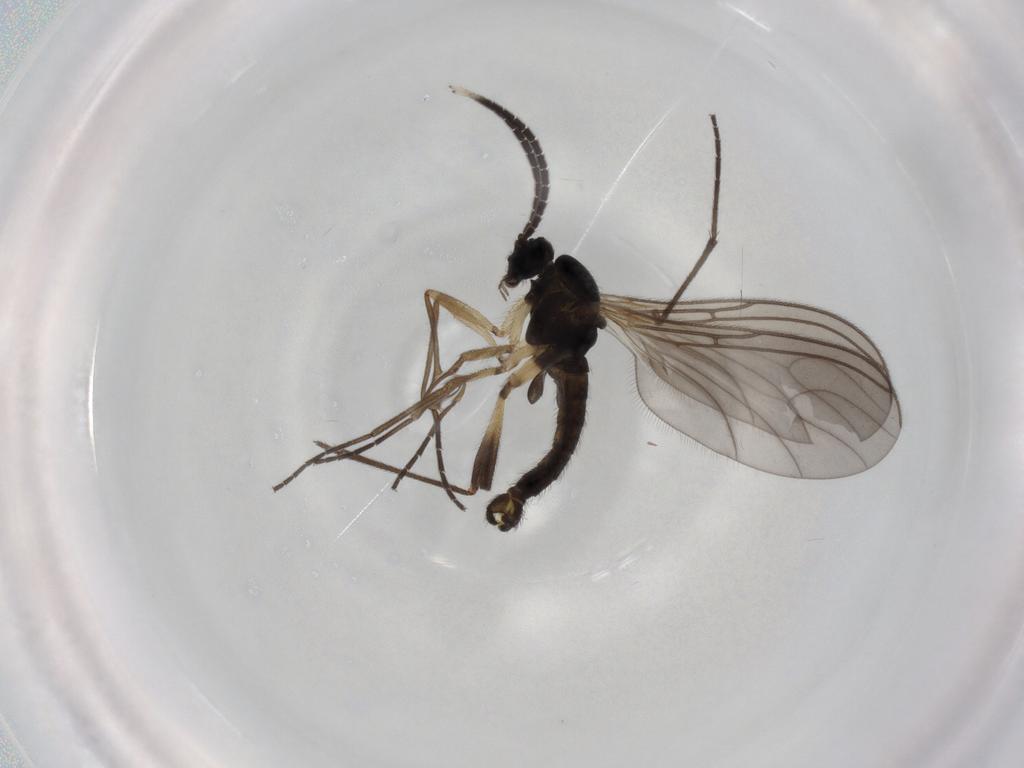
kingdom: Animalia
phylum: Arthropoda
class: Insecta
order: Diptera
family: Sciaridae
